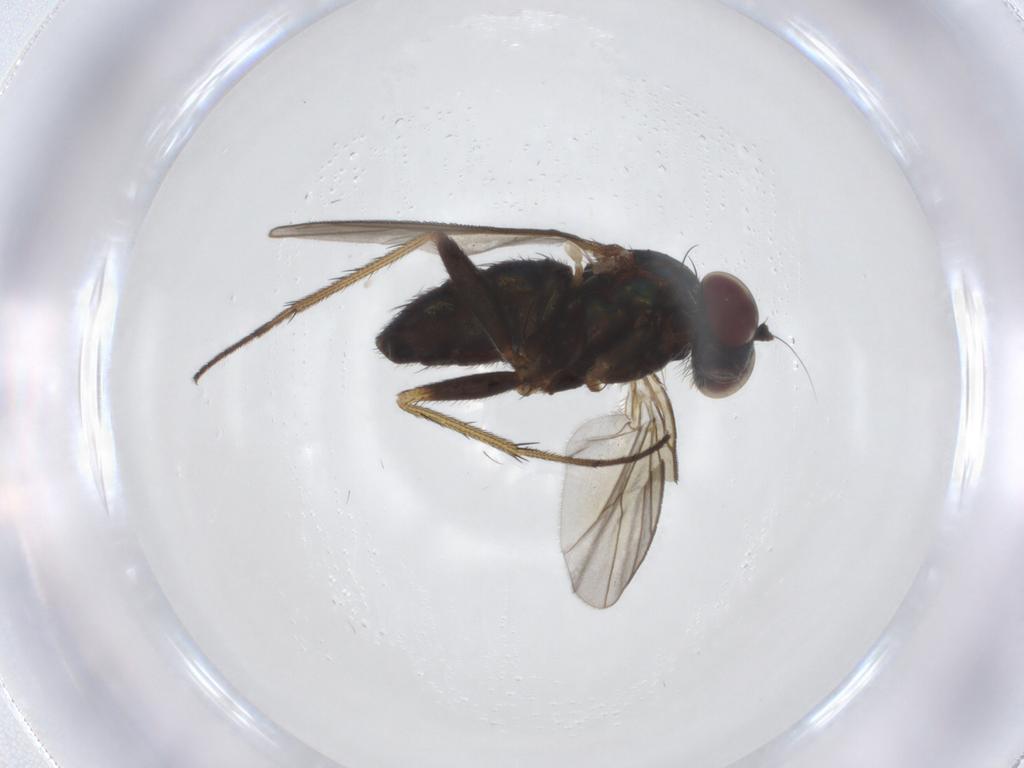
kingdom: Animalia
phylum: Arthropoda
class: Insecta
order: Diptera
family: Dolichopodidae
